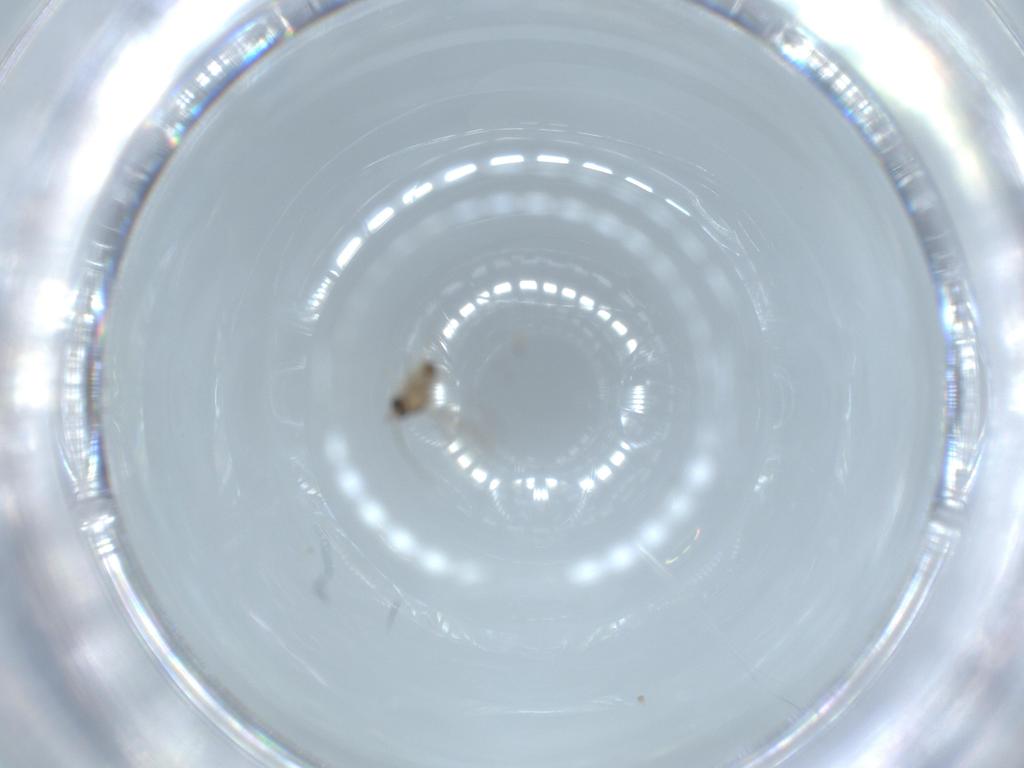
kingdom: Animalia
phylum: Arthropoda
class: Insecta
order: Diptera
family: Cecidomyiidae
